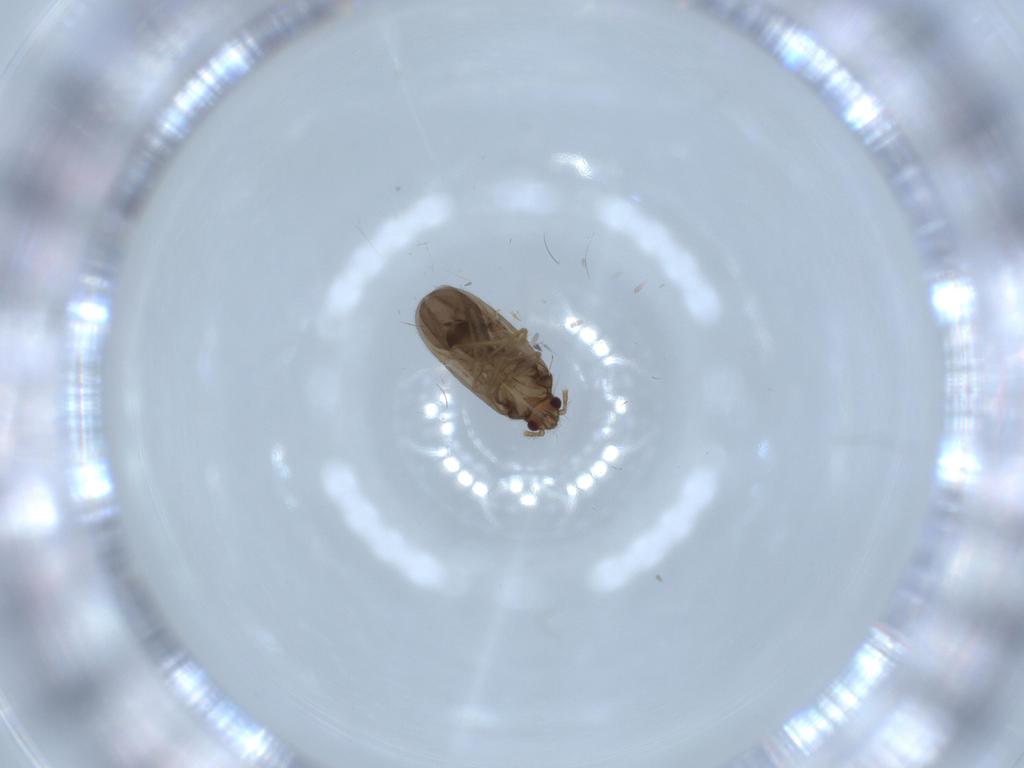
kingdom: Animalia
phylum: Arthropoda
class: Insecta
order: Hemiptera
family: Ceratocombidae
